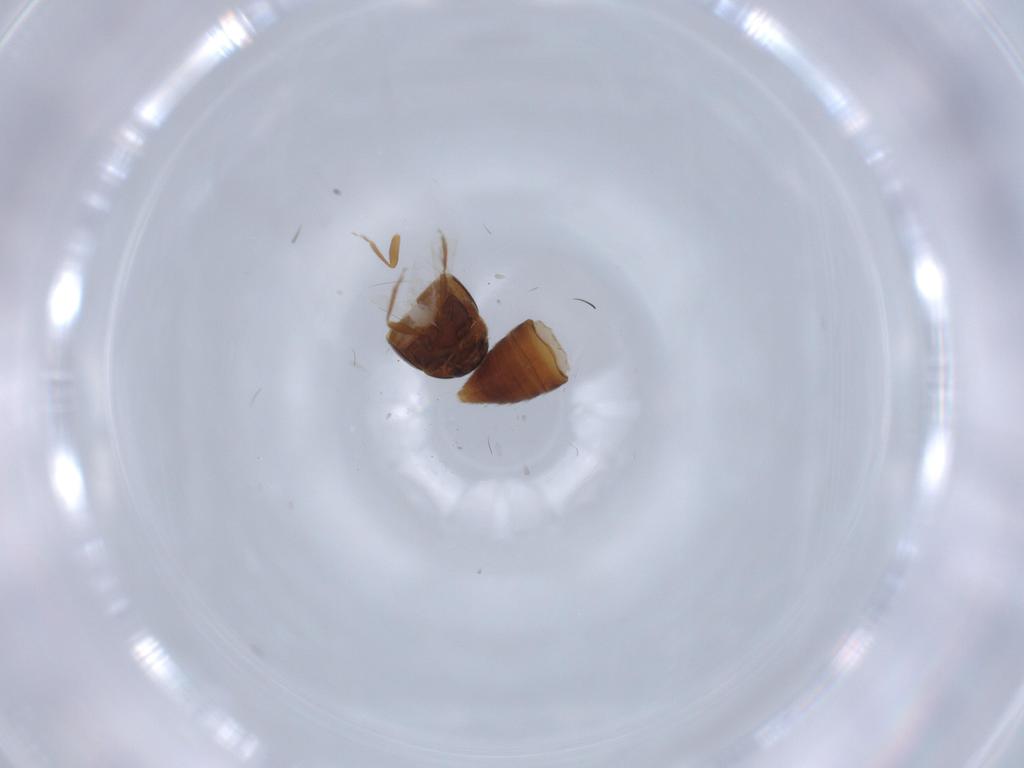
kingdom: Animalia
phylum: Arthropoda
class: Insecta
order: Coleoptera
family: Staphylinidae
